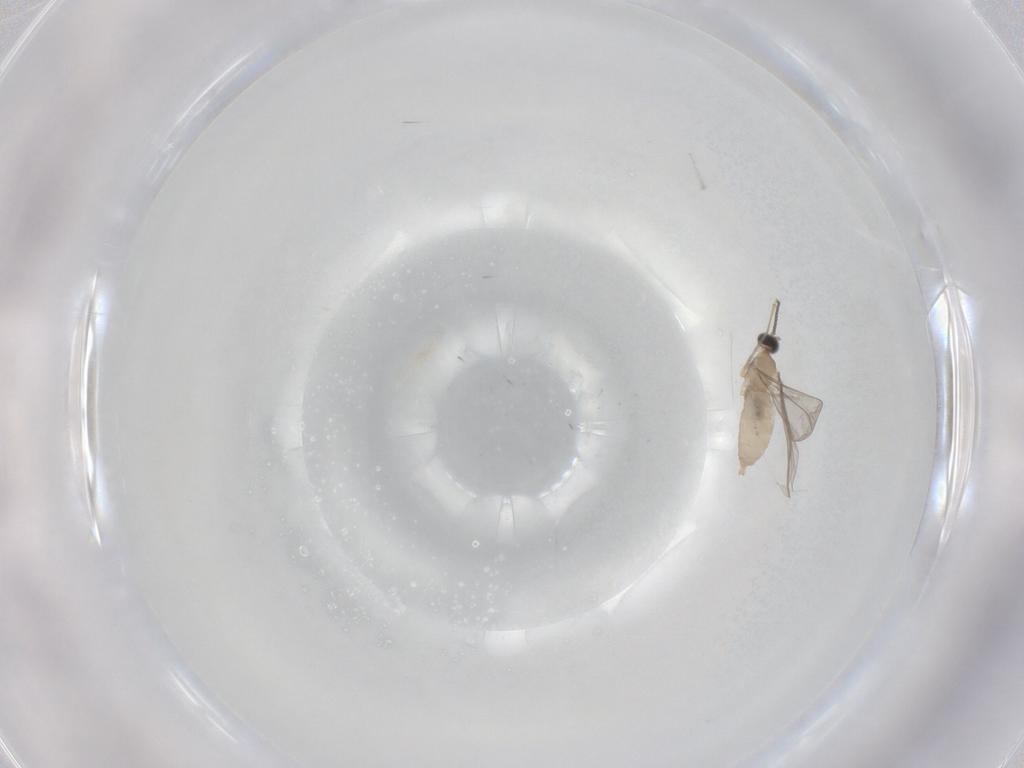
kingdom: Animalia
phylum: Arthropoda
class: Insecta
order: Diptera
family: Cecidomyiidae
